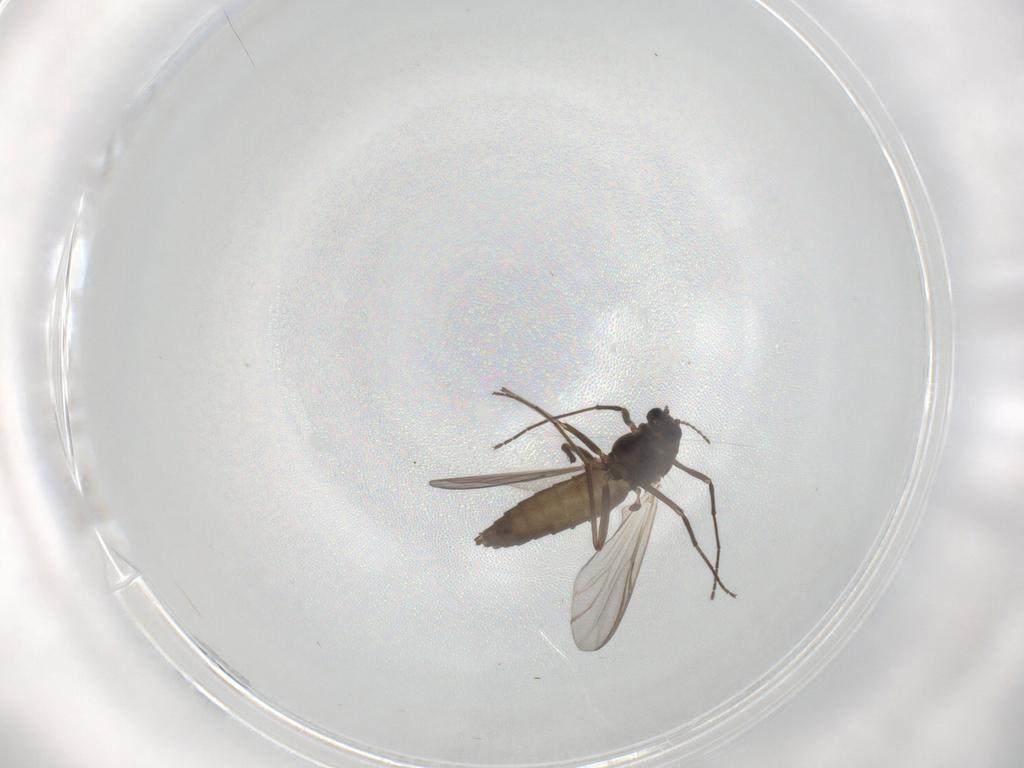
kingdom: Animalia
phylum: Arthropoda
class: Insecta
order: Diptera
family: Chironomidae
